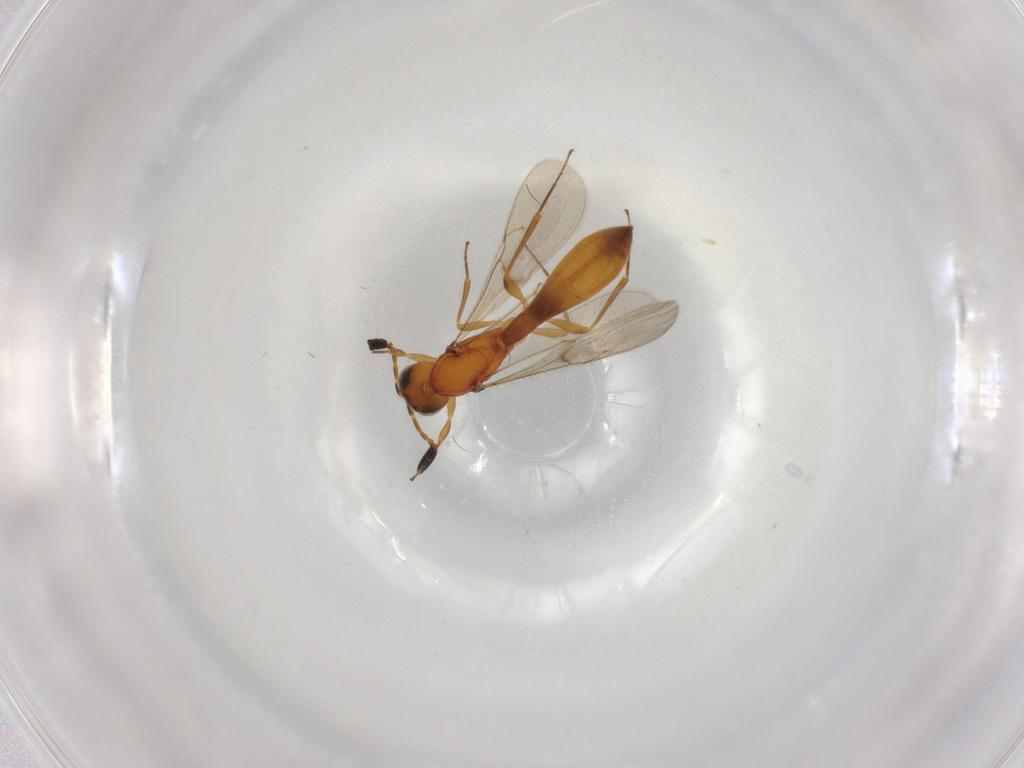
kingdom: Animalia
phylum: Arthropoda
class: Insecta
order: Hymenoptera
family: Scelionidae
